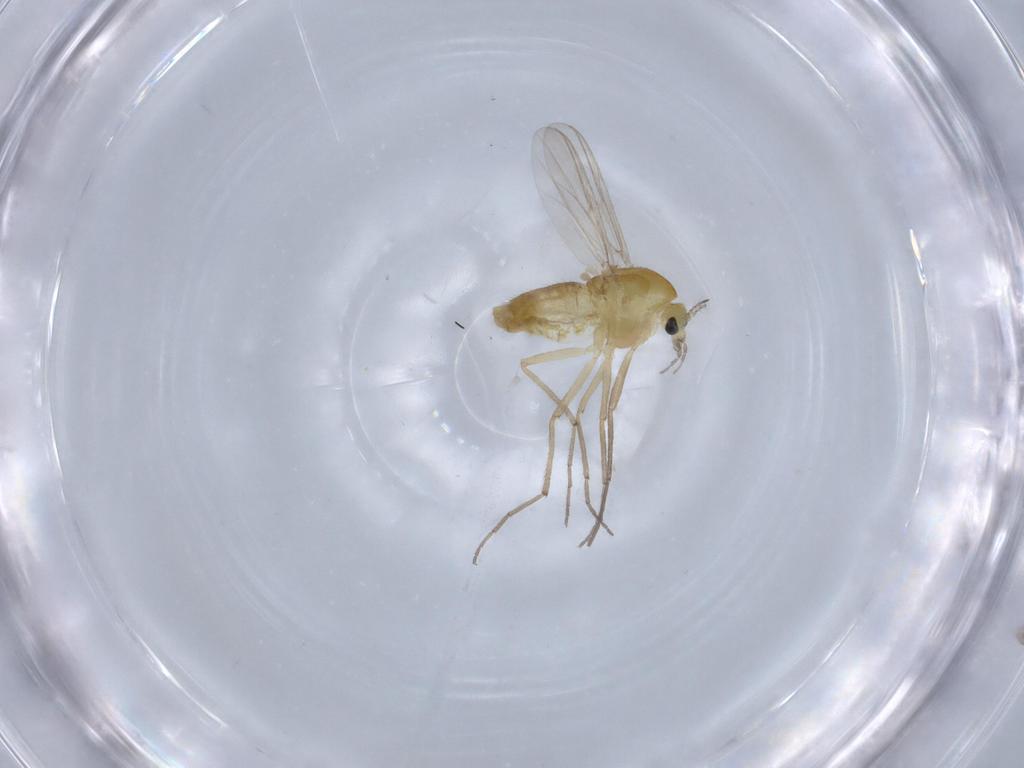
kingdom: Animalia
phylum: Arthropoda
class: Insecta
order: Diptera
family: Chironomidae
